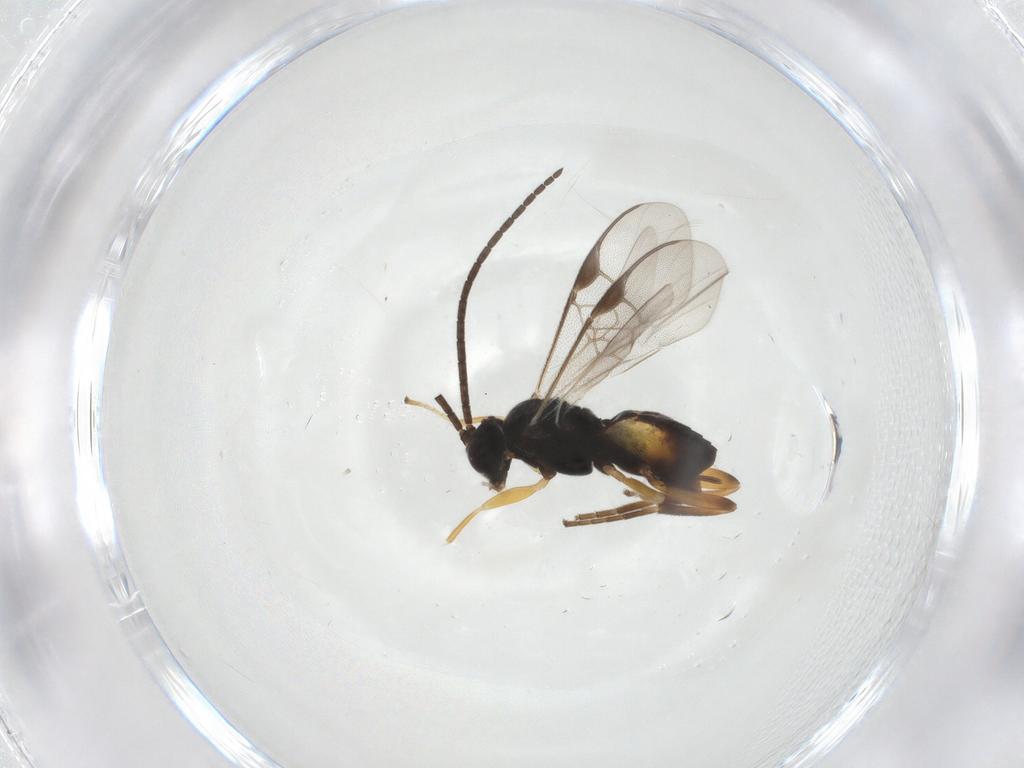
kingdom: Animalia
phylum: Arthropoda
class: Insecta
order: Hymenoptera
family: Braconidae
